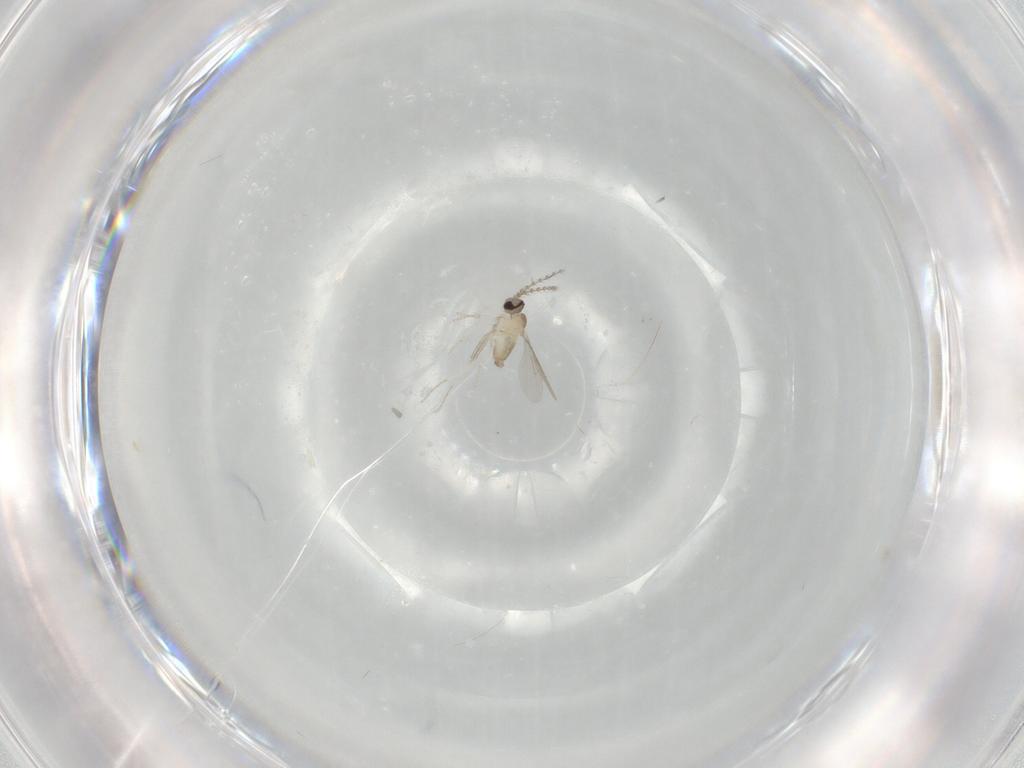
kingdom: Animalia
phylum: Arthropoda
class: Insecta
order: Diptera
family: Cecidomyiidae
